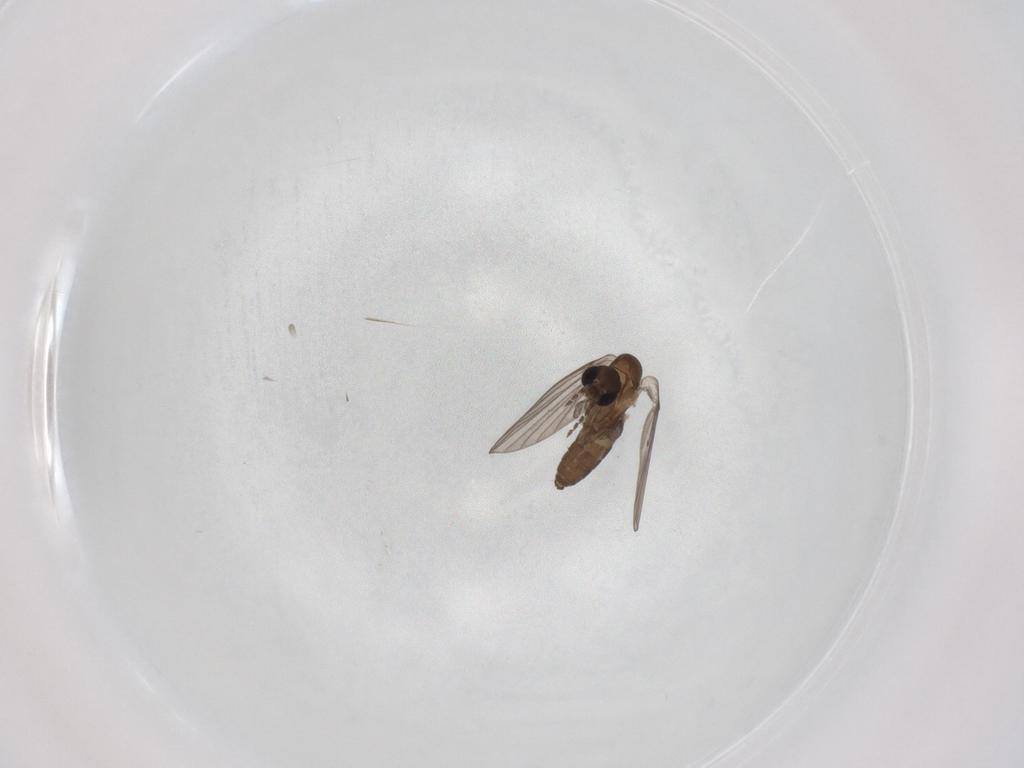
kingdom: Animalia
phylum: Arthropoda
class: Insecta
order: Diptera
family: Psychodidae
